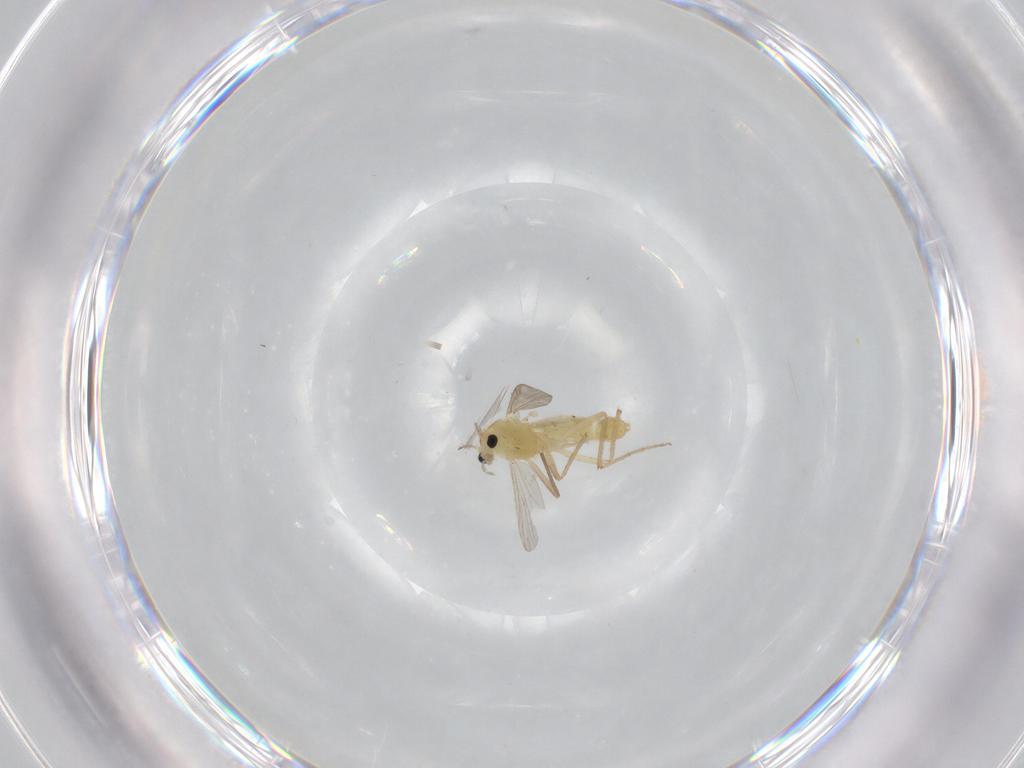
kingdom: Animalia
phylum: Arthropoda
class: Insecta
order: Diptera
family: Chironomidae
